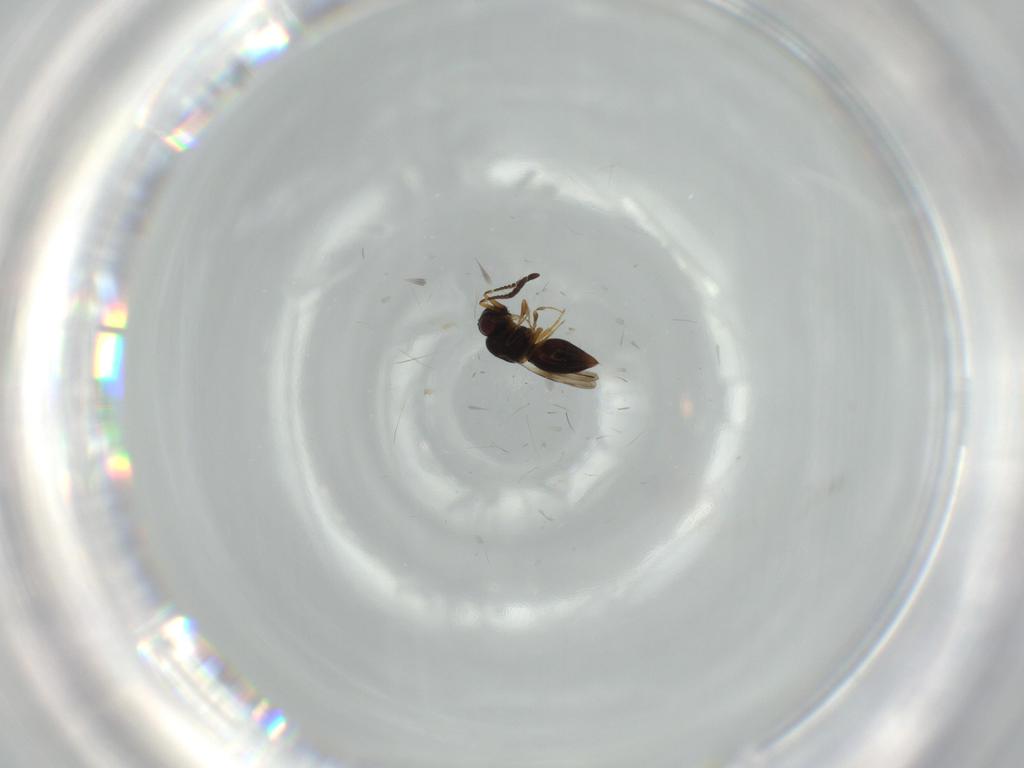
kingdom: Animalia
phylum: Arthropoda
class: Insecta
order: Hymenoptera
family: Ceraphronidae
